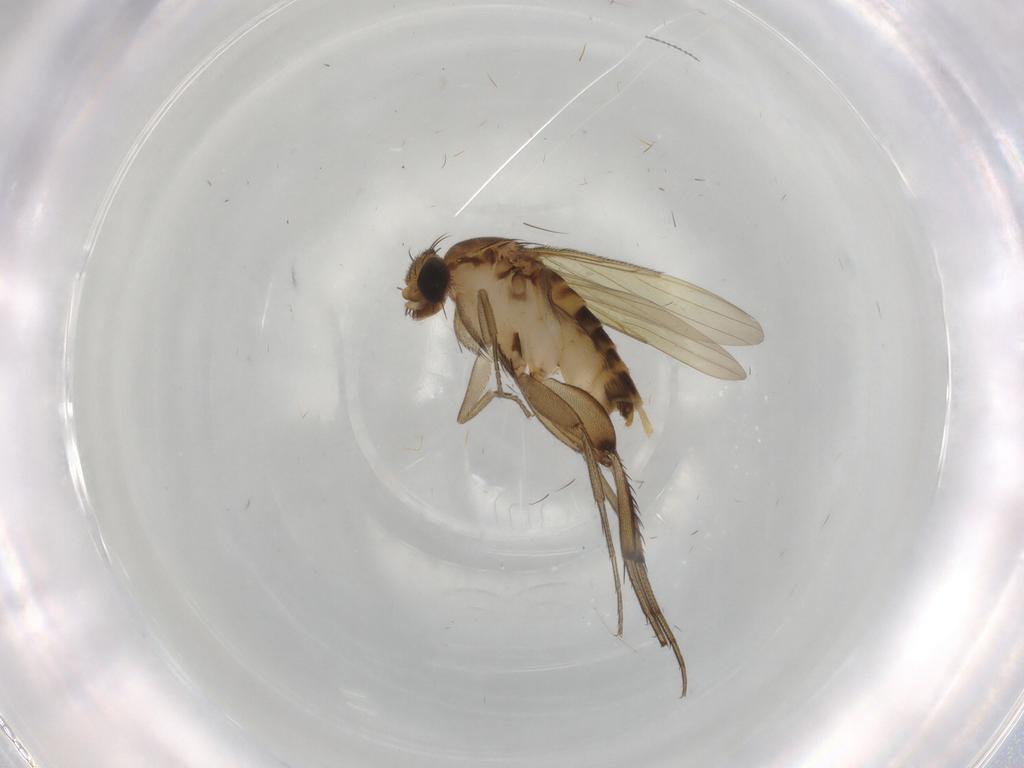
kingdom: Animalia
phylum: Arthropoda
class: Insecta
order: Diptera
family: Phoridae
